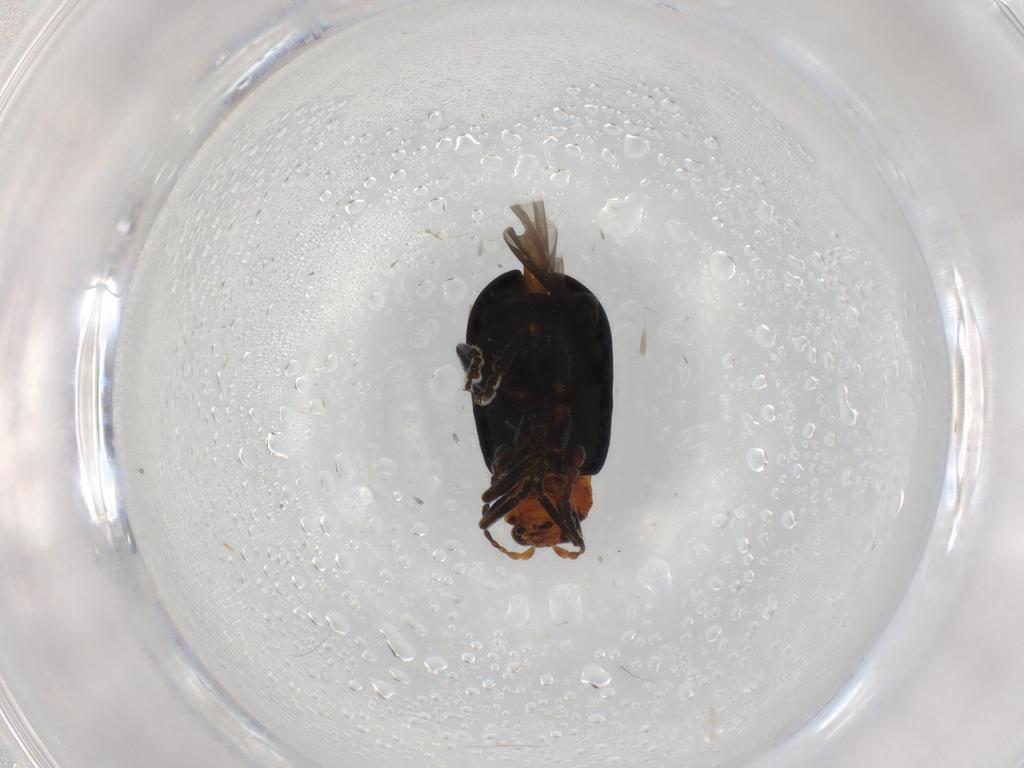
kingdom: Animalia
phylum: Arthropoda
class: Insecta
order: Coleoptera
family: Chrysomelidae
